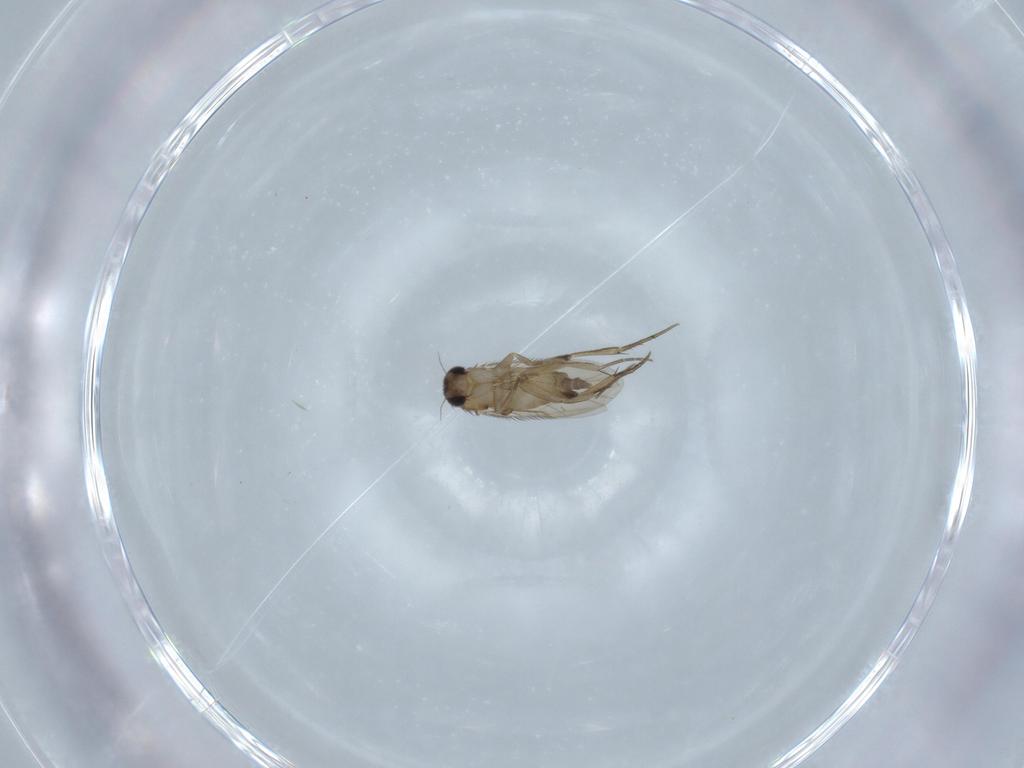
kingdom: Animalia
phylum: Arthropoda
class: Insecta
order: Diptera
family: Phoridae
